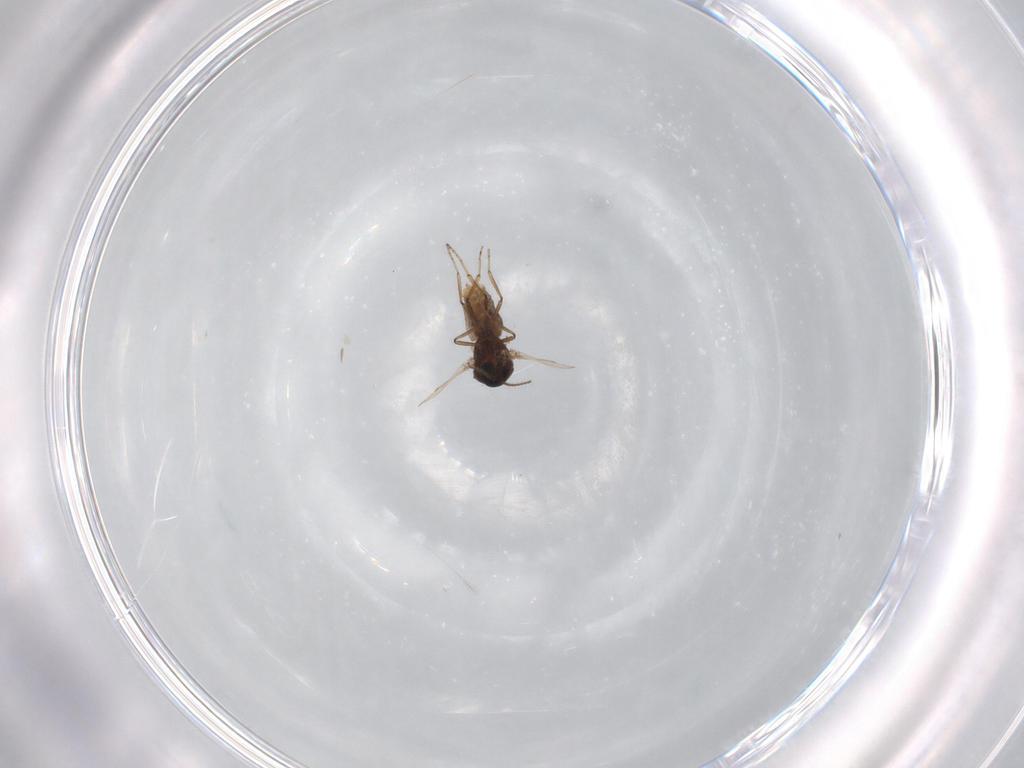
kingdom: Animalia
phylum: Arthropoda
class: Insecta
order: Diptera
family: Ceratopogonidae
